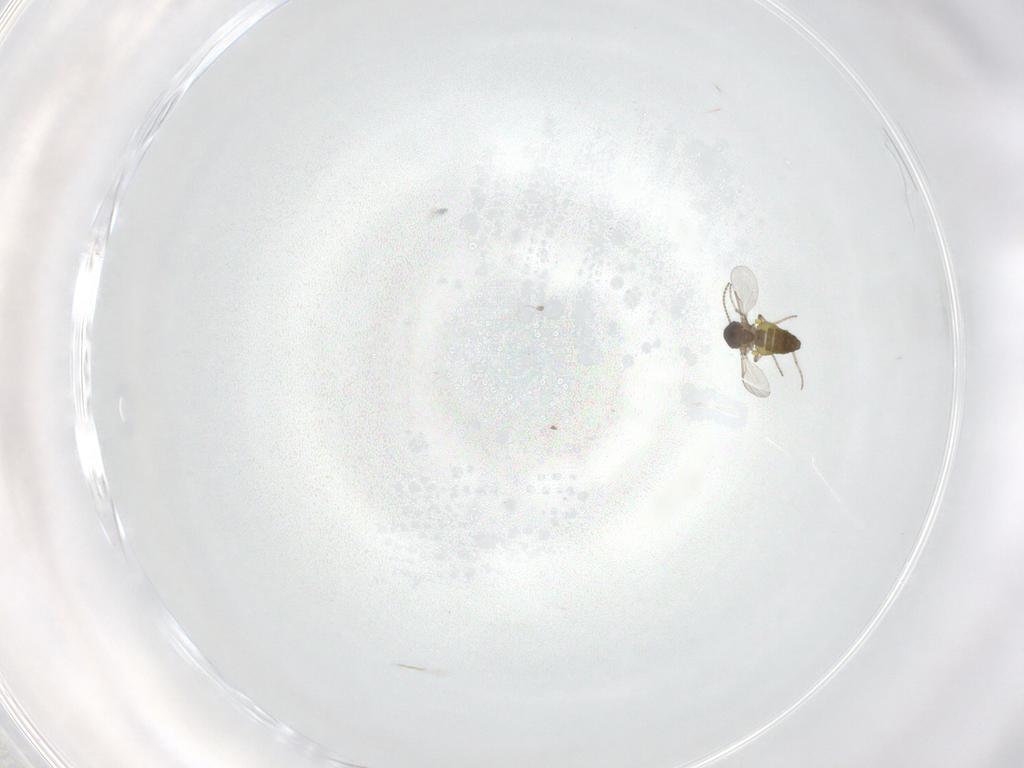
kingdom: Animalia
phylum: Arthropoda
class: Insecta
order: Diptera
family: Ceratopogonidae
